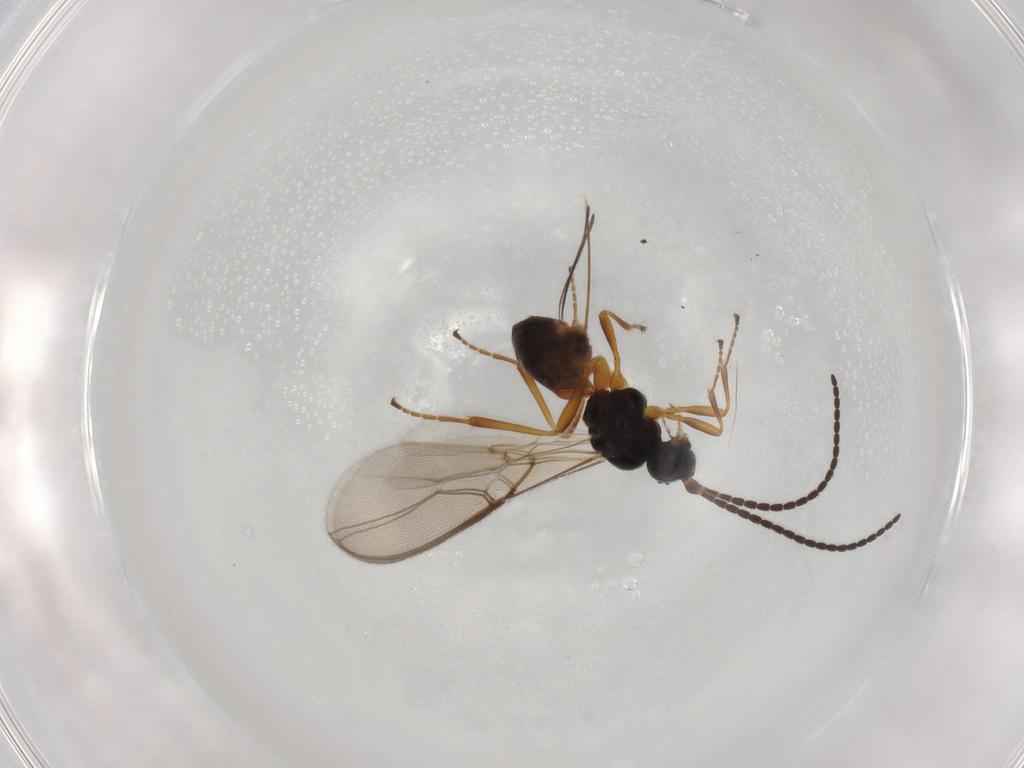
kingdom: Animalia
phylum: Arthropoda
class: Insecta
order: Hymenoptera
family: Braconidae
